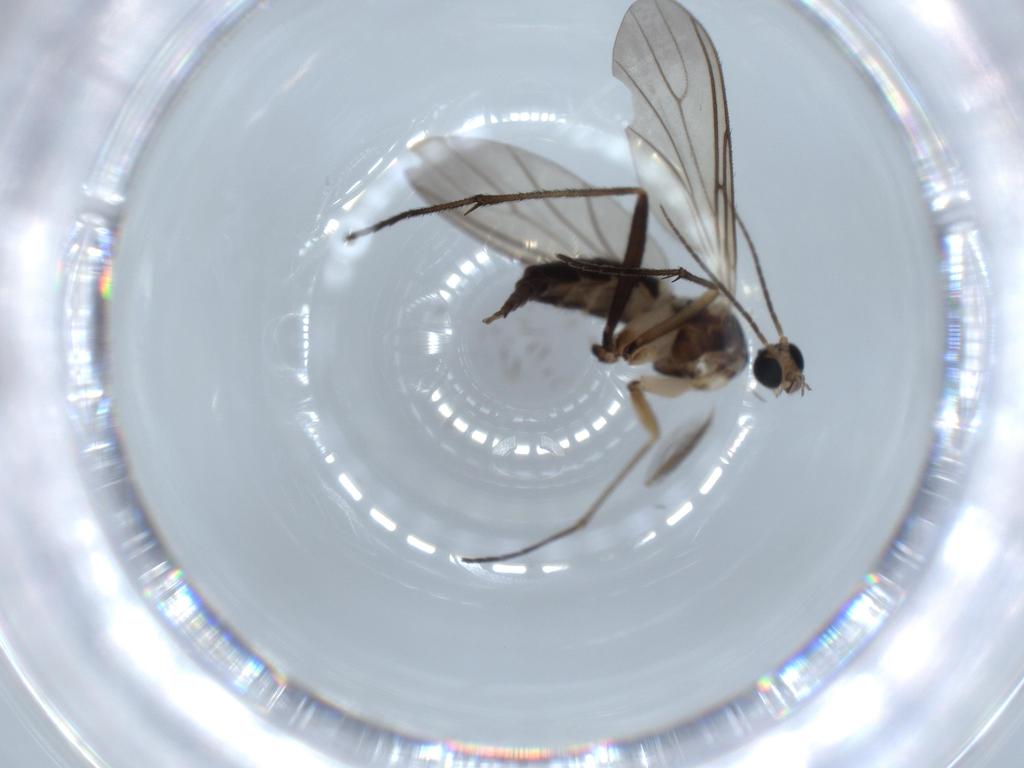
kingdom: Animalia
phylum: Arthropoda
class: Insecta
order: Diptera
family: Sciaridae
